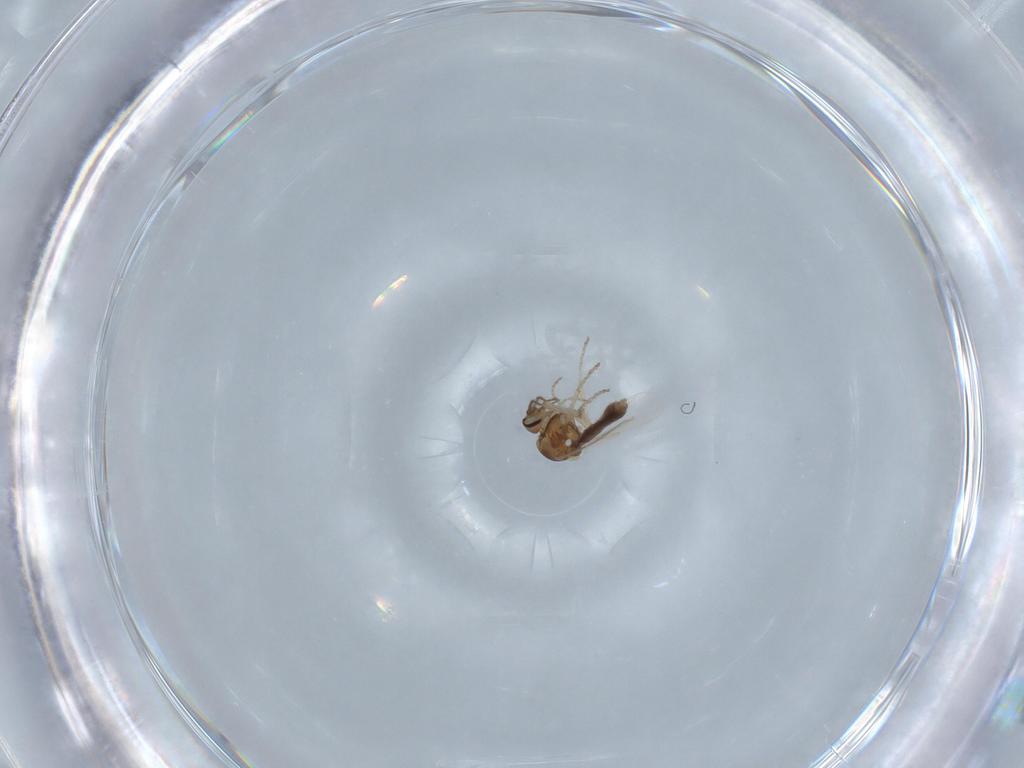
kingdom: Animalia
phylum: Arthropoda
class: Insecta
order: Diptera
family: Ceratopogonidae
